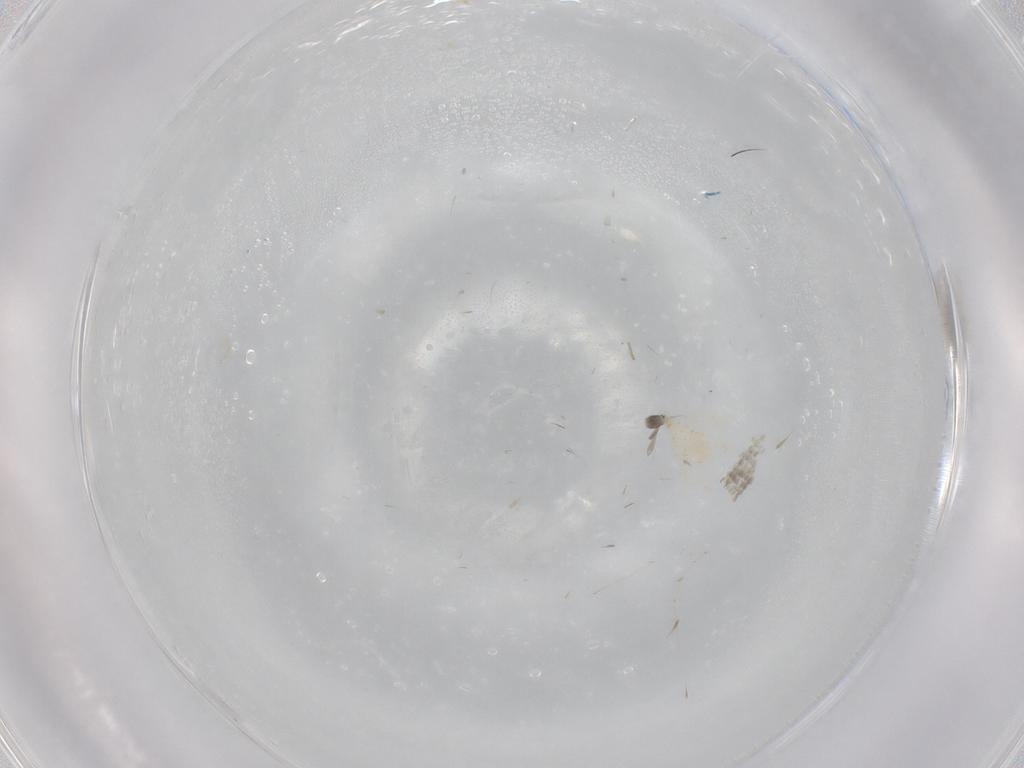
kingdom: Animalia
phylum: Arthropoda
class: Insecta
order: Diptera
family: Cecidomyiidae
